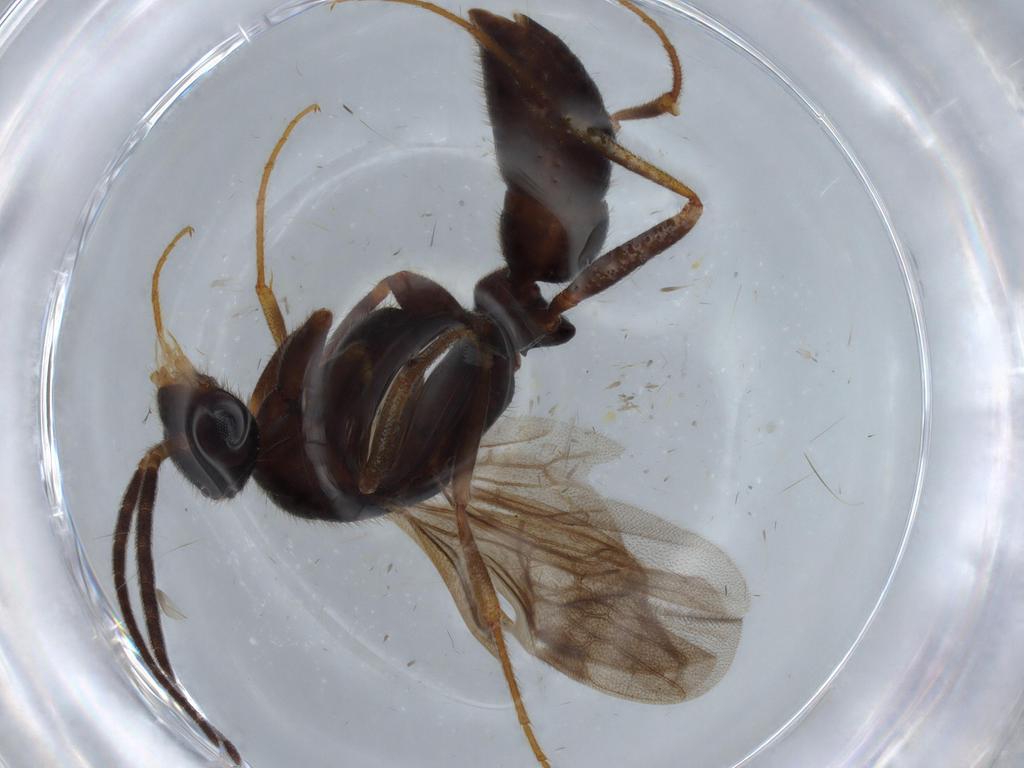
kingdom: Animalia
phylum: Arthropoda
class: Insecta
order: Hymenoptera
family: Formicidae
